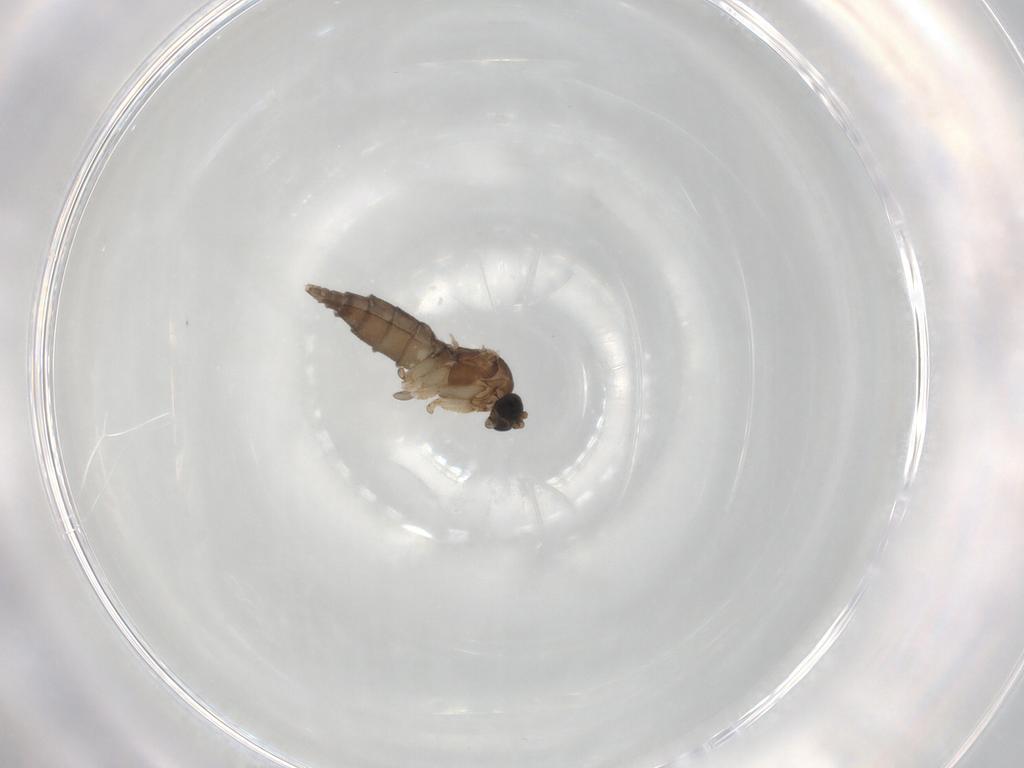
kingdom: Animalia
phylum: Arthropoda
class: Insecta
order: Diptera
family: Sciaridae
